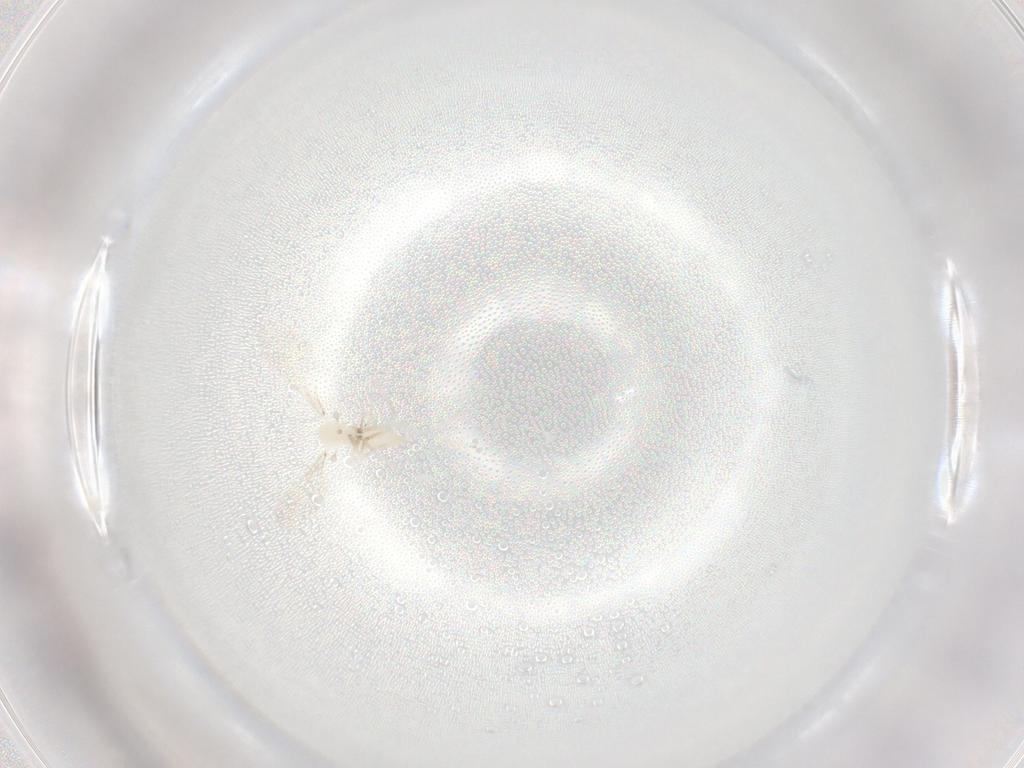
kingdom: Animalia
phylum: Arthropoda
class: Insecta
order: Diptera
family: Cecidomyiidae
